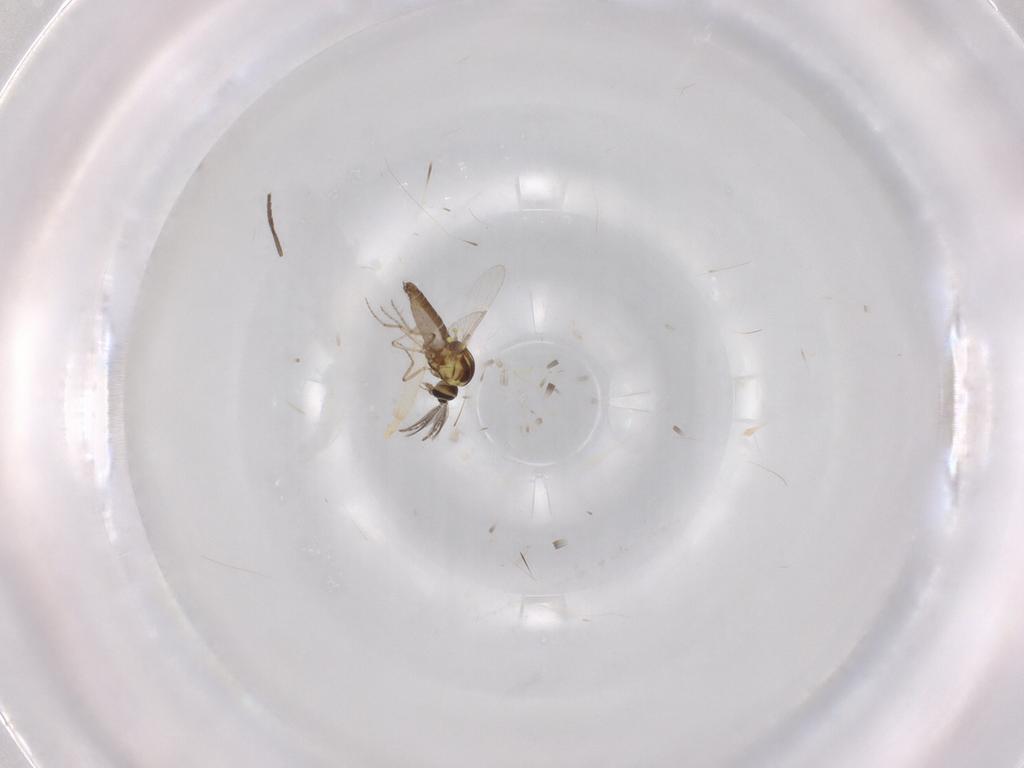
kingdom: Animalia
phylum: Arthropoda
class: Insecta
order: Diptera
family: Ceratopogonidae
